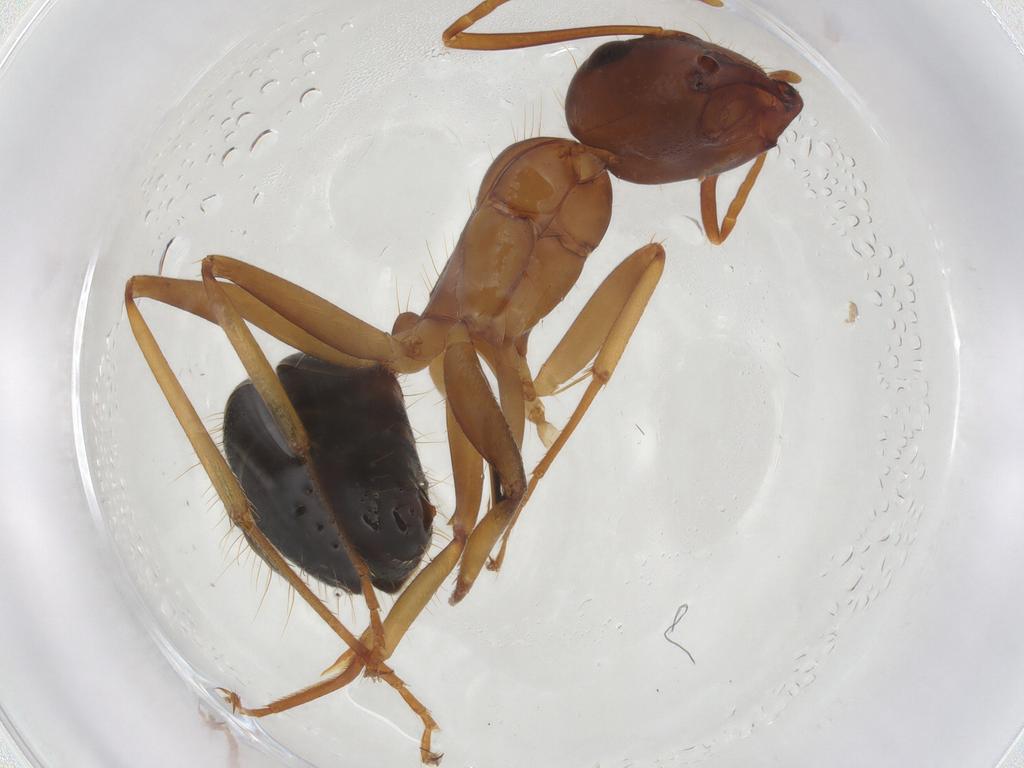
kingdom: Animalia
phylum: Arthropoda
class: Insecta
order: Hymenoptera
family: Formicidae
